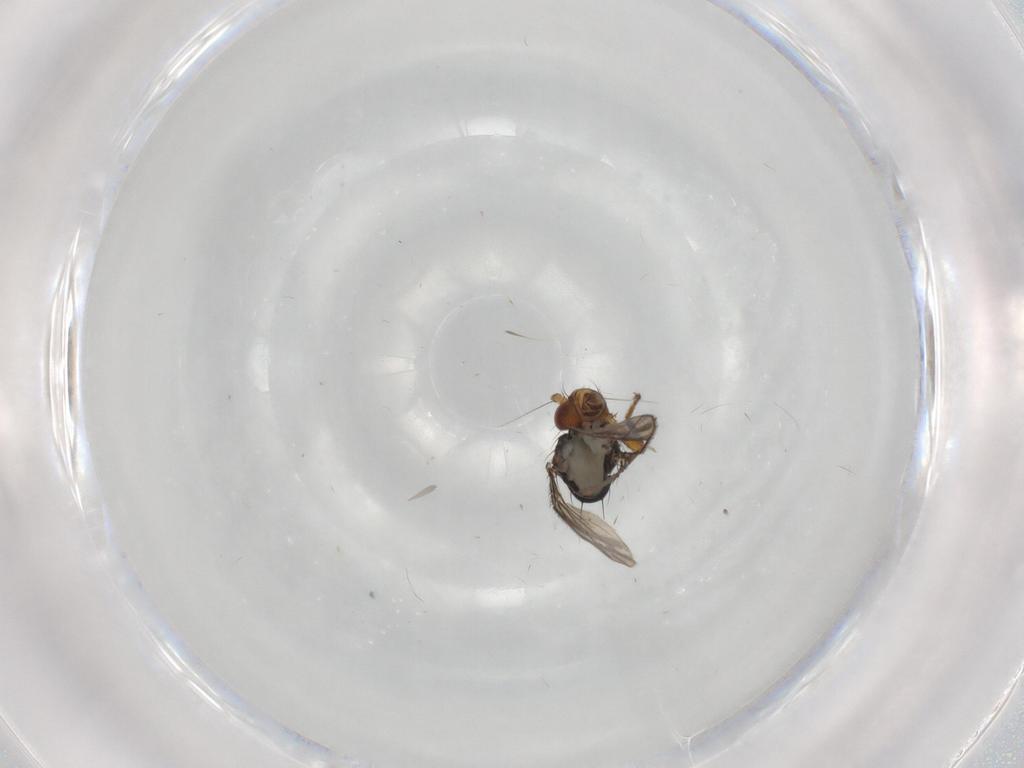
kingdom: Animalia
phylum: Arthropoda
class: Insecta
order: Diptera
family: Sphaeroceridae
